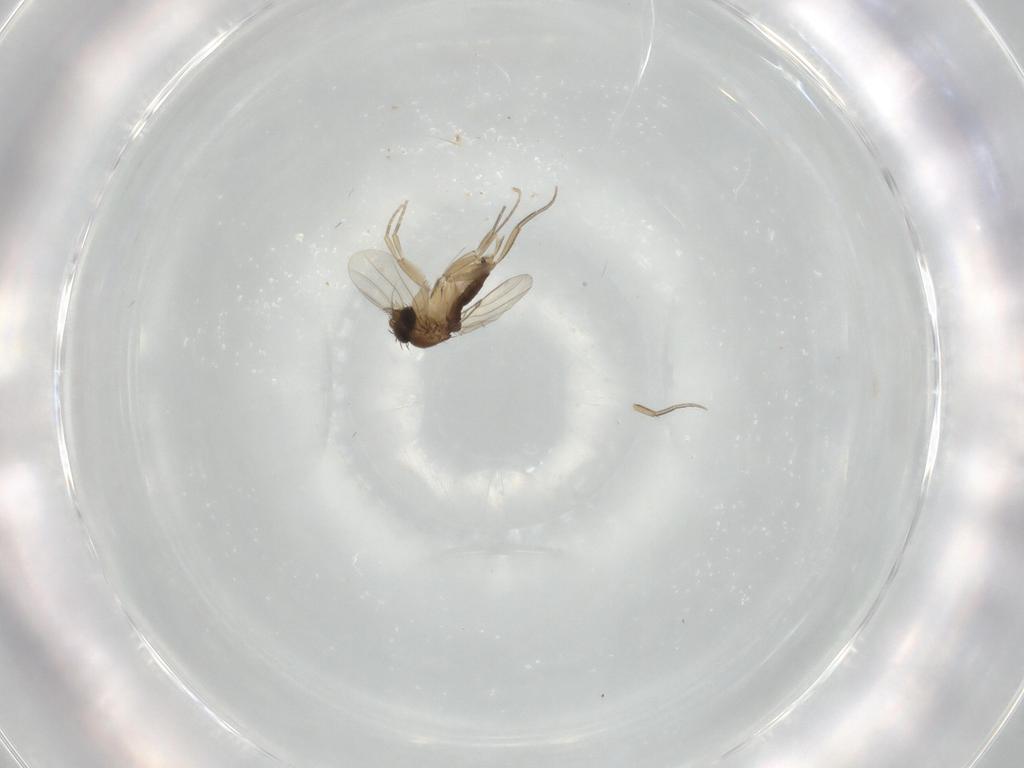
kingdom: Animalia
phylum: Arthropoda
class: Insecta
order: Diptera
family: Phoridae
